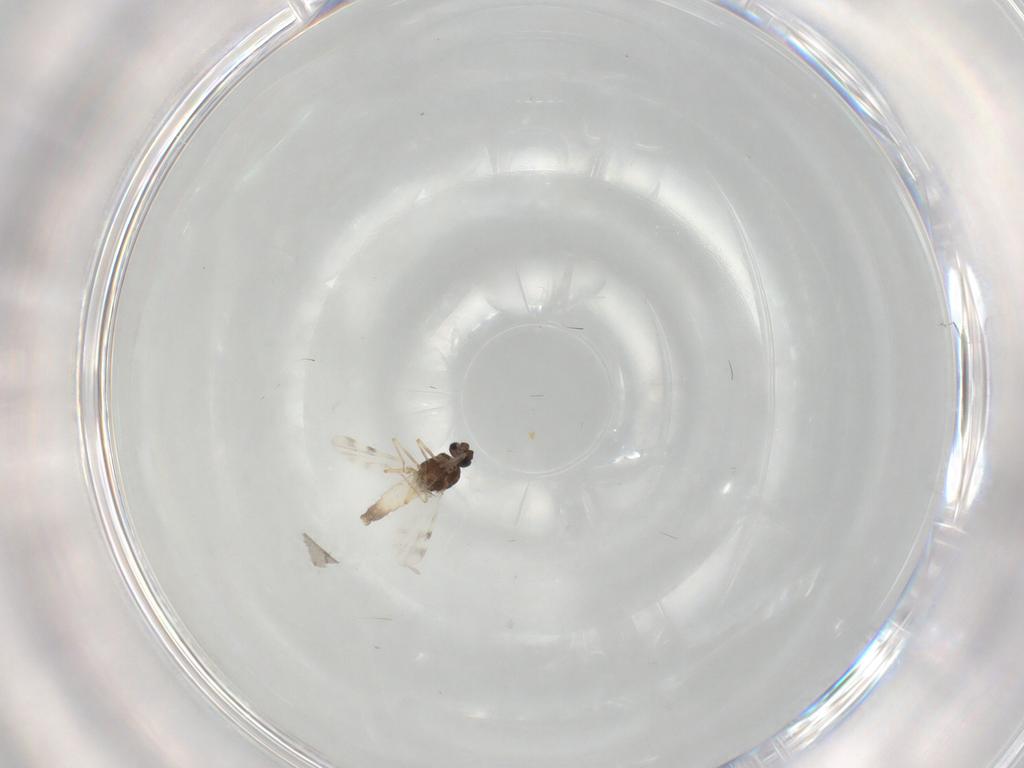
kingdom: Animalia
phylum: Arthropoda
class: Insecta
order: Diptera
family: Ceratopogonidae
